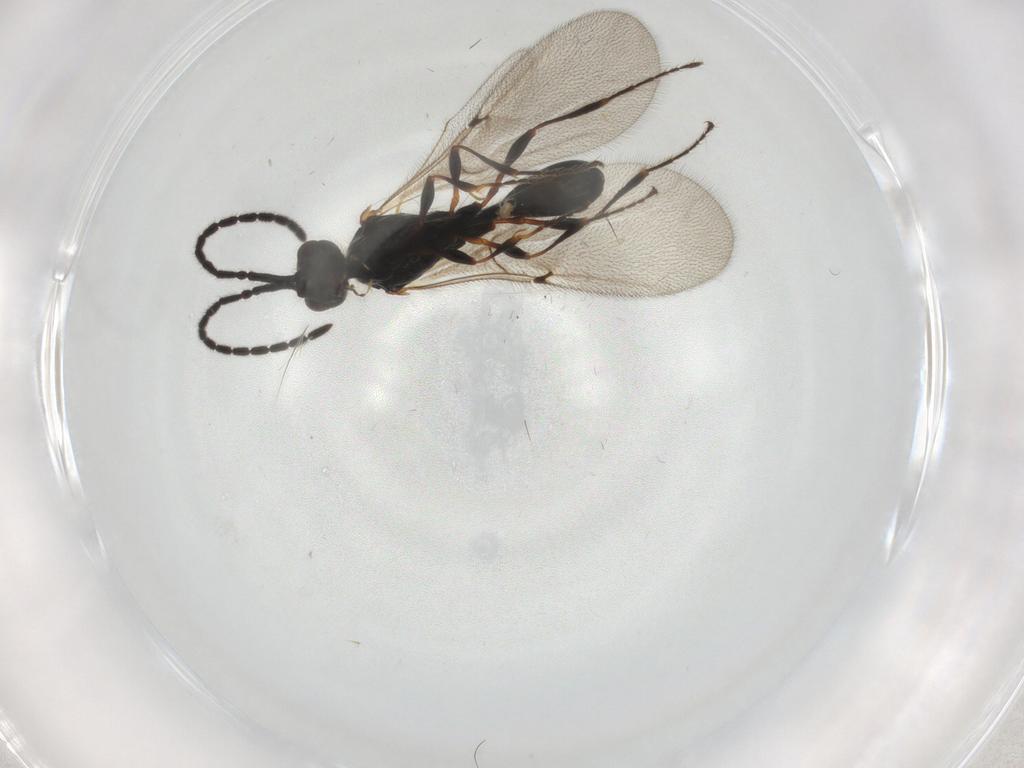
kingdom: Animalia
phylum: Arthropoda
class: Insecta
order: Hymenoptera
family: Diapriidae
